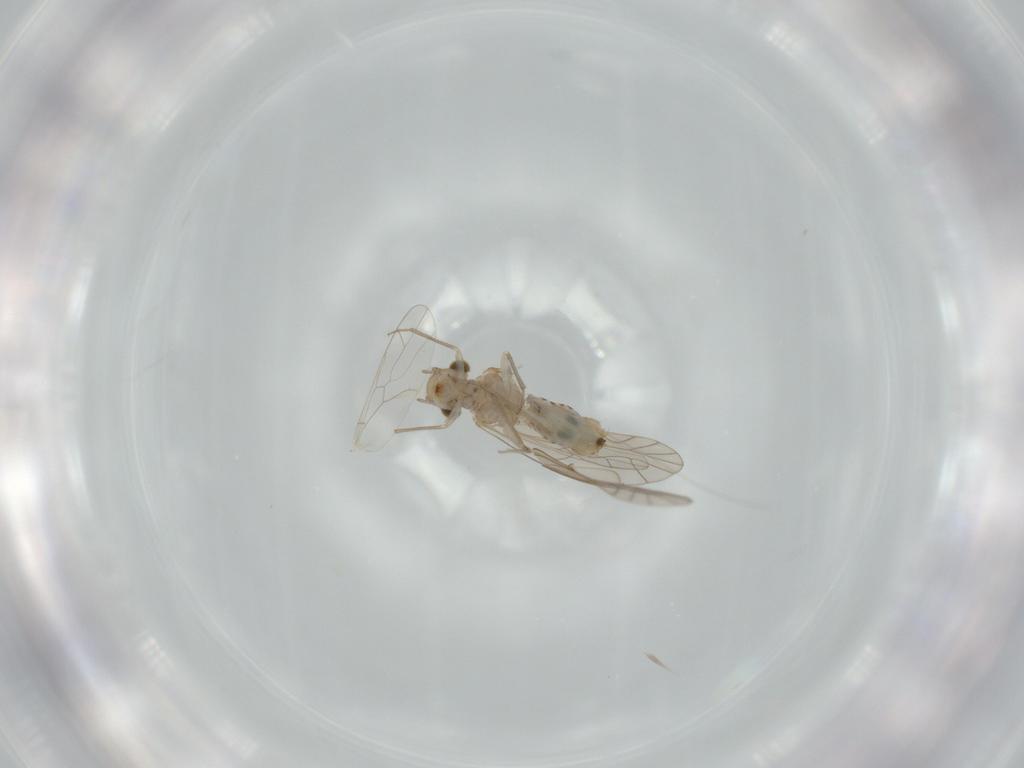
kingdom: Animalia
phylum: Arthropoda
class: Insecta
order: Psocodea
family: Lachesillidae
